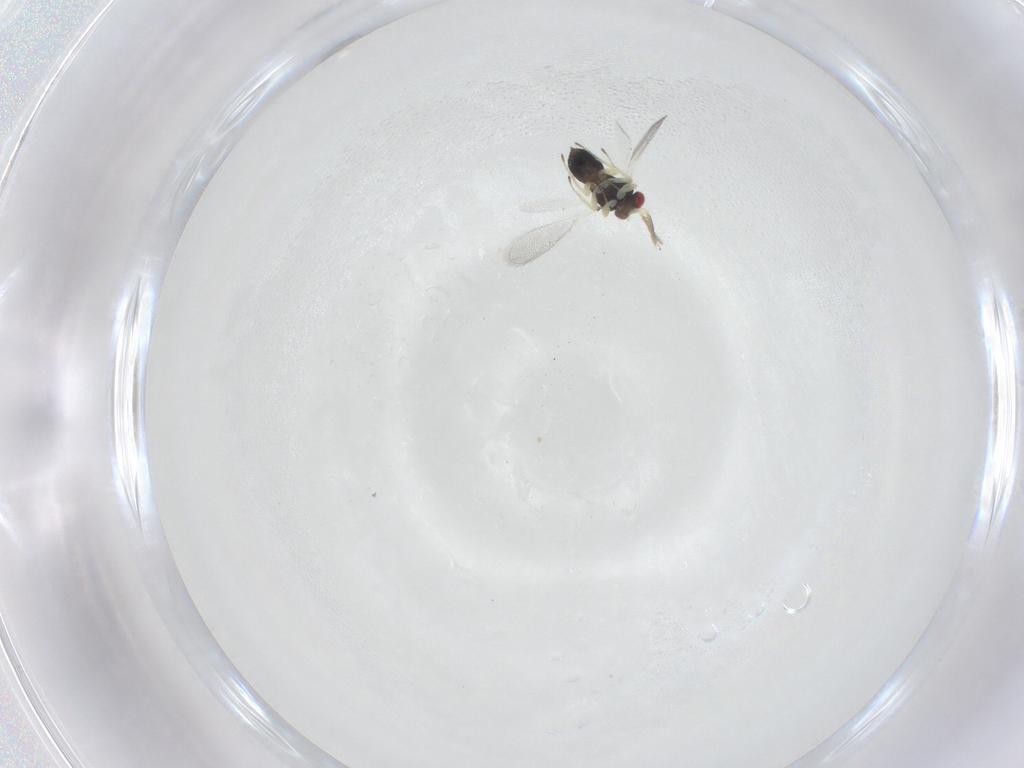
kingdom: Animalia
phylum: Arthropoda
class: Insecta
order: Hymenoptera
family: Eulophidae
